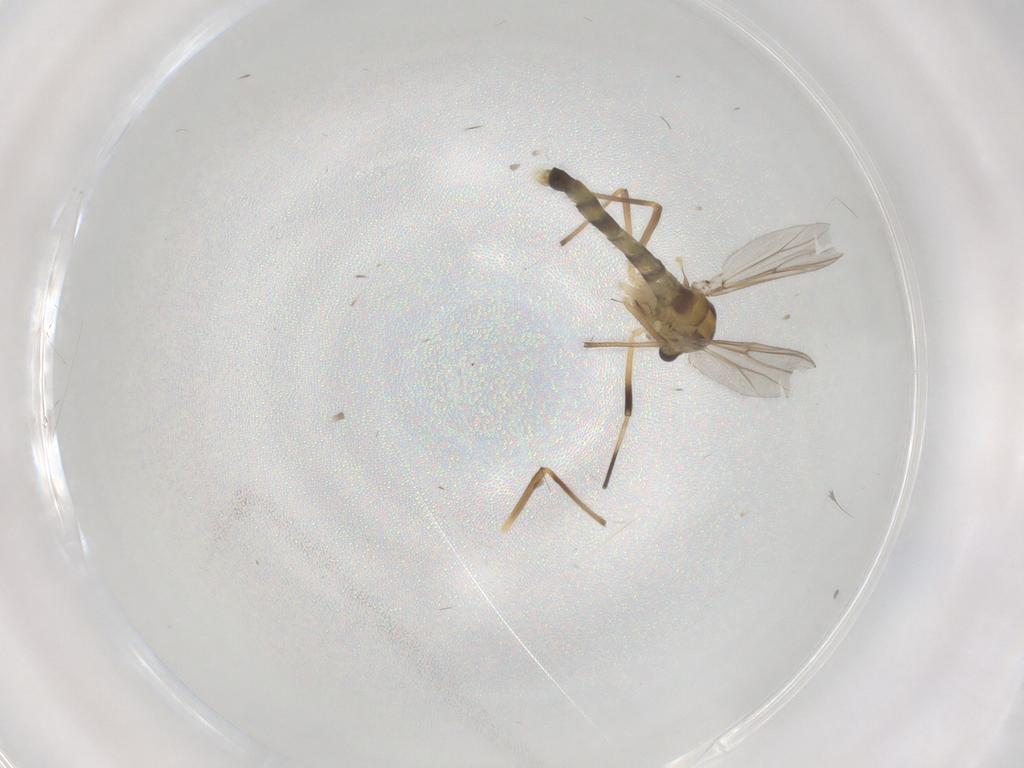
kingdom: Animalia
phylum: Arthropoda
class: Insecta
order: Diptera
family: Chironomidae
